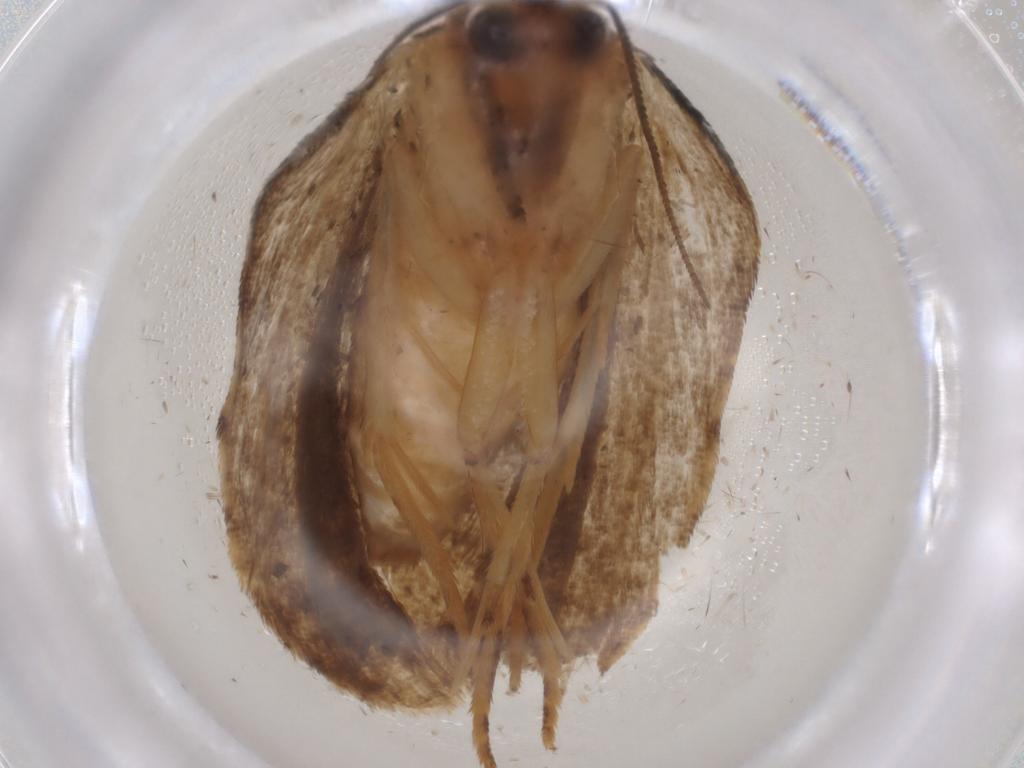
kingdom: Animalia
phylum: Arthropoda
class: Insecta
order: Lepidoptera
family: Tortricidae
